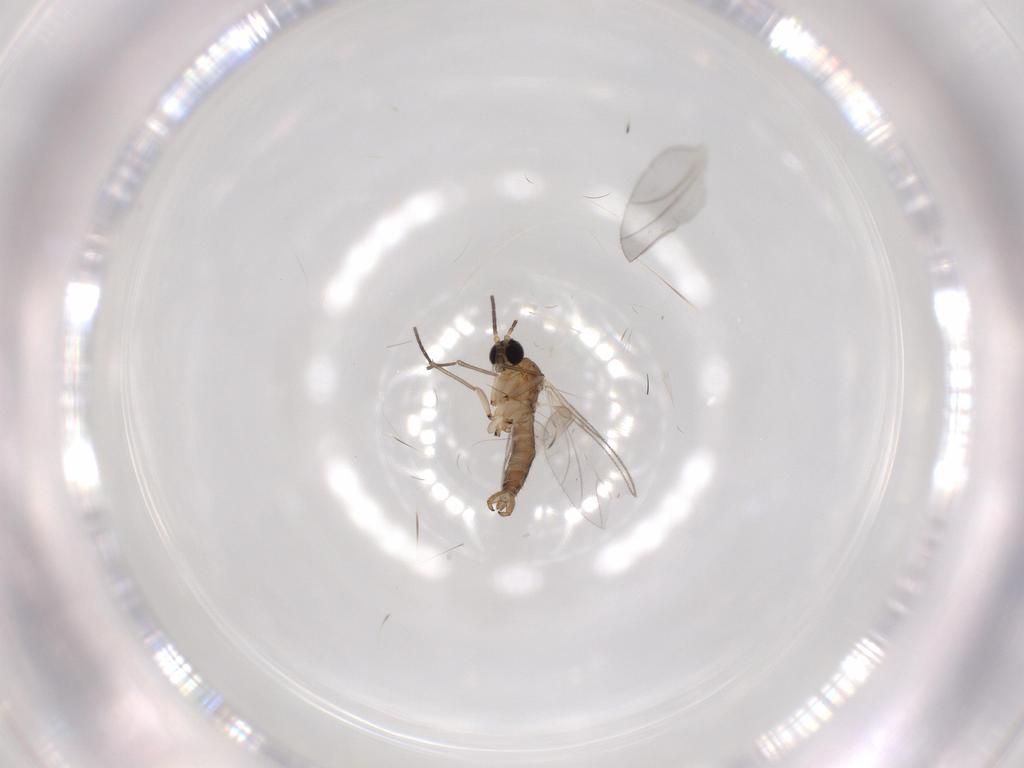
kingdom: Animalia
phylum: Arthropoda
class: Insecta
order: Diptera
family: Phoridae
